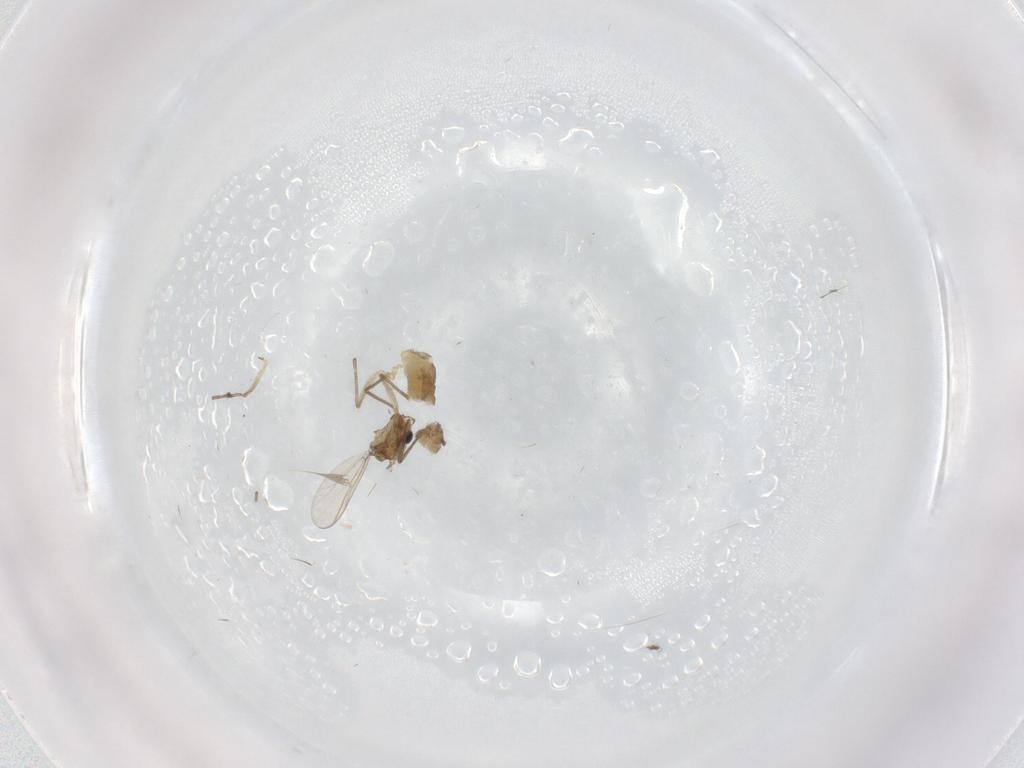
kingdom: Animalia
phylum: Arthropoda
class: Insecta
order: Diptera
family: Chironomidae
